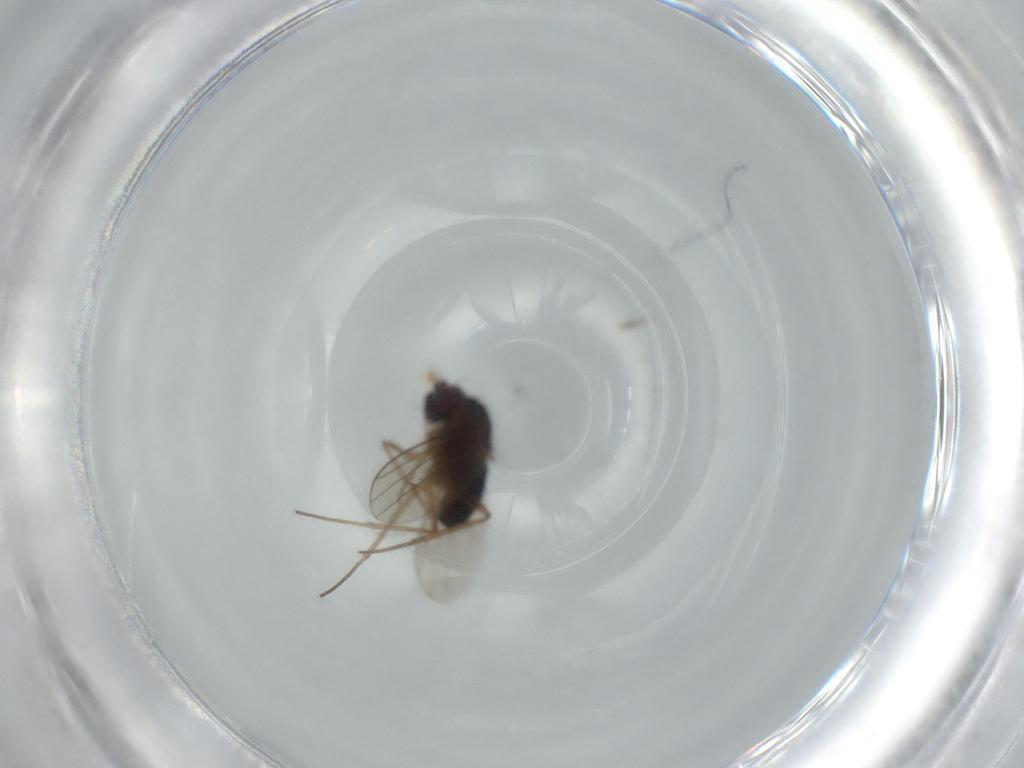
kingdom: Animalia
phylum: Arthropoda
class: Insecta
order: Diptera
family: Dolichopodidae
